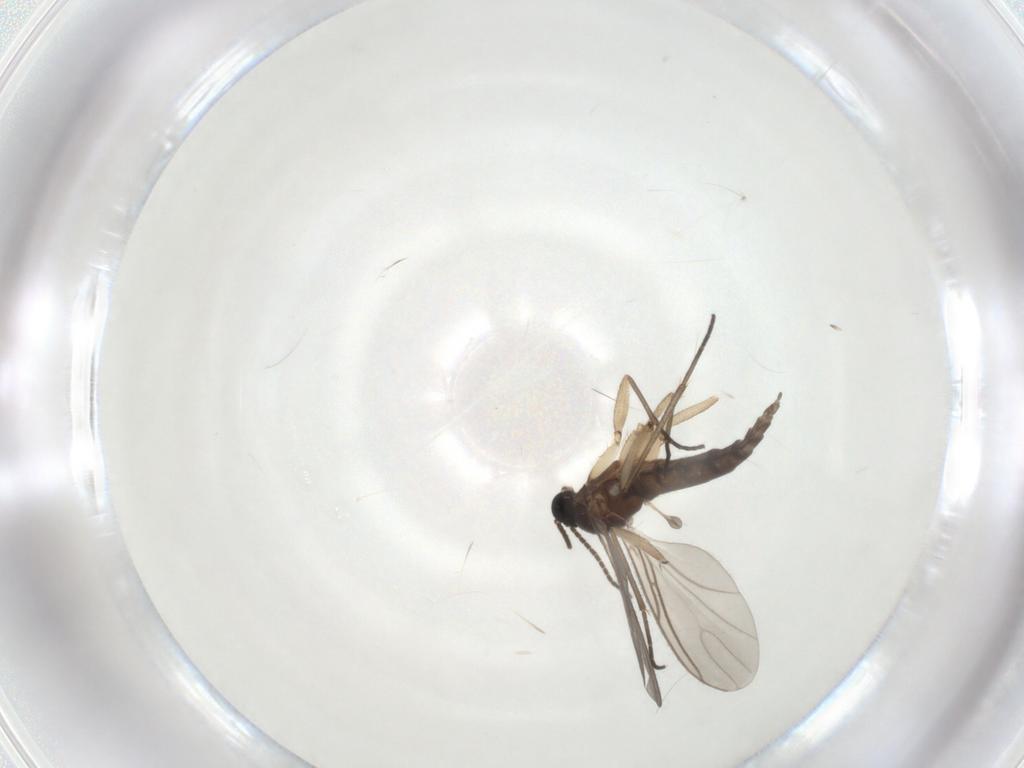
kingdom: Animalia
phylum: Arthropoda
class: Insecta
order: Diptera
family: Sciaridae
